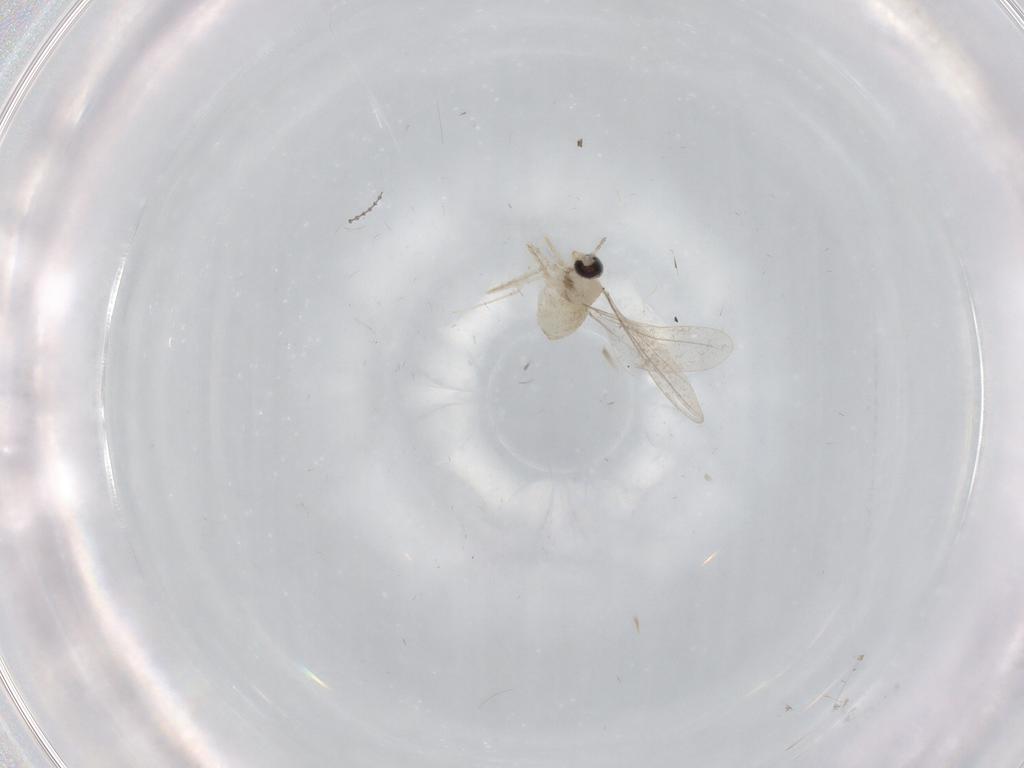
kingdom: Animalia
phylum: Arthropoda
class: Insecta
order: Diptera
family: Cecidomyiidae
